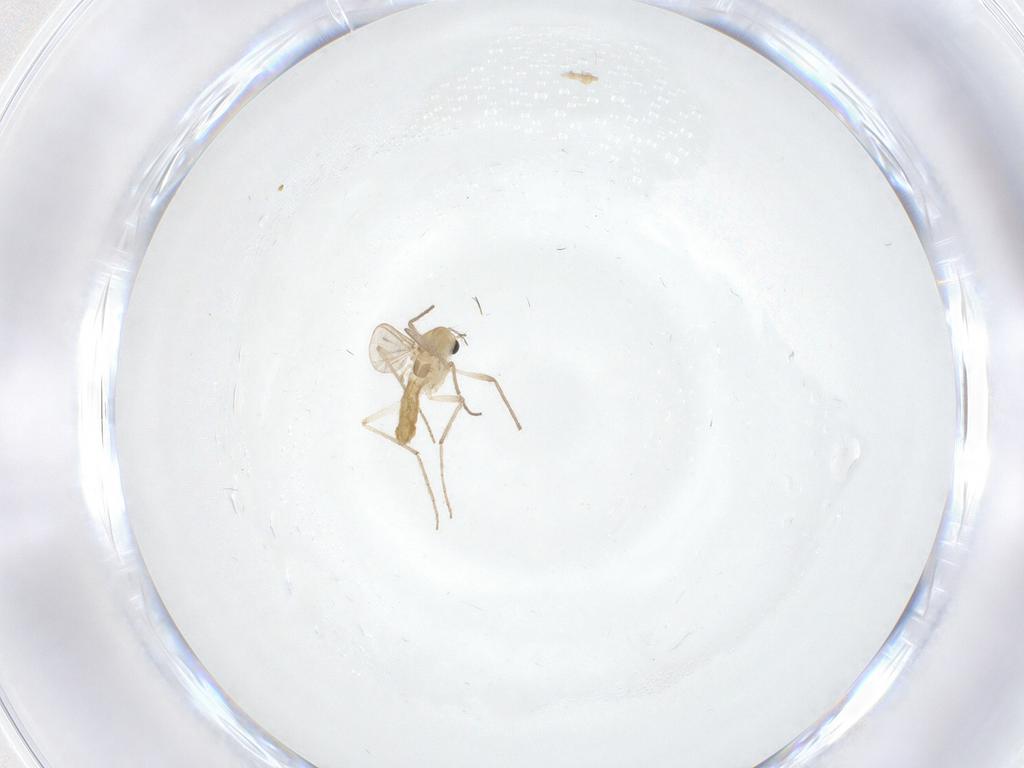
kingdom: Animalia
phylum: Arthropoda
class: Insecta
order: Diptera
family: Chironomidae
